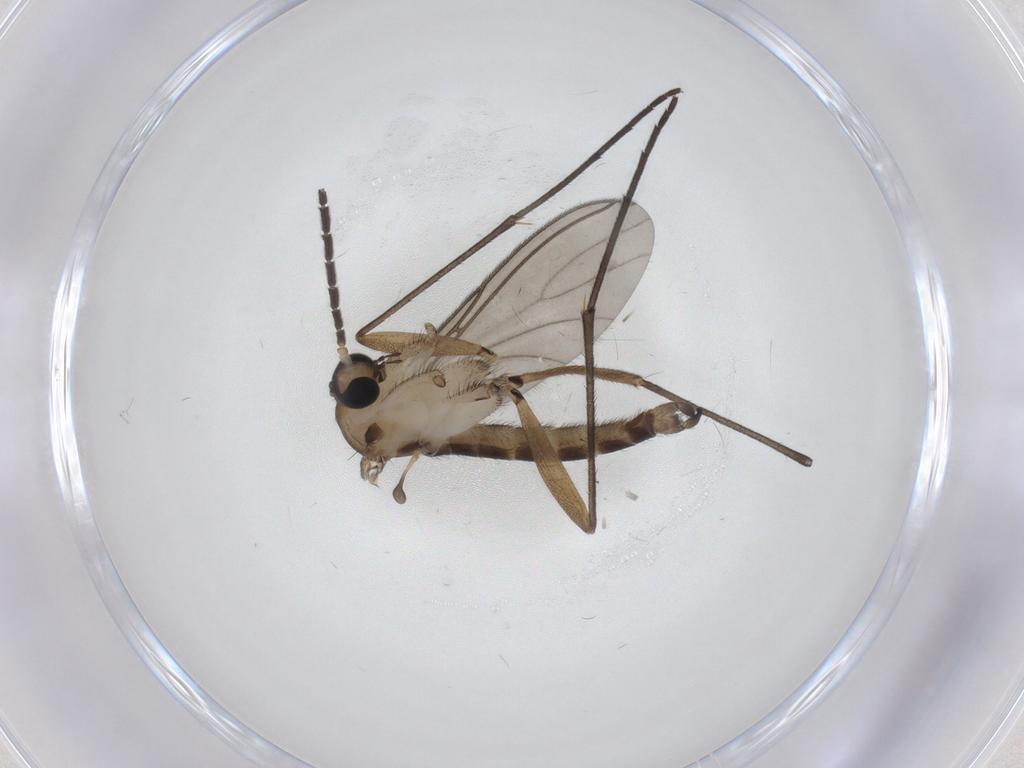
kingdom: Animalia
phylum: Arthropoda
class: Insecta
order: Diptera
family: Sciaridae
